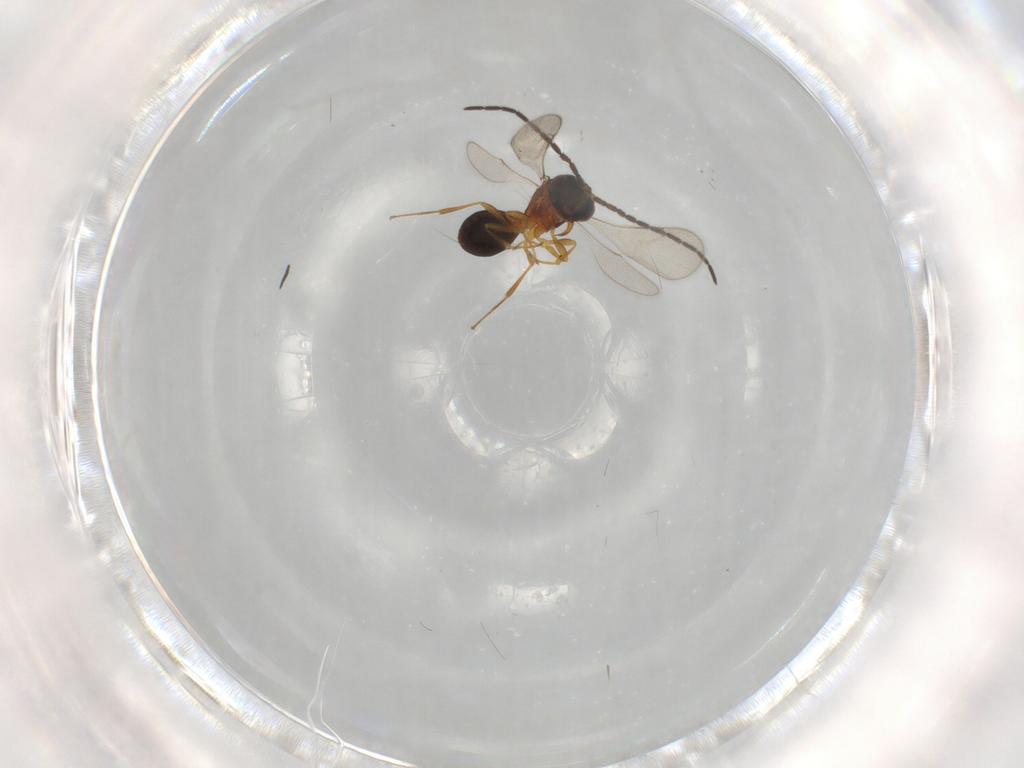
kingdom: Animalia
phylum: Arthropoda
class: Insecta
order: Hymenoptera
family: Scelionidae
